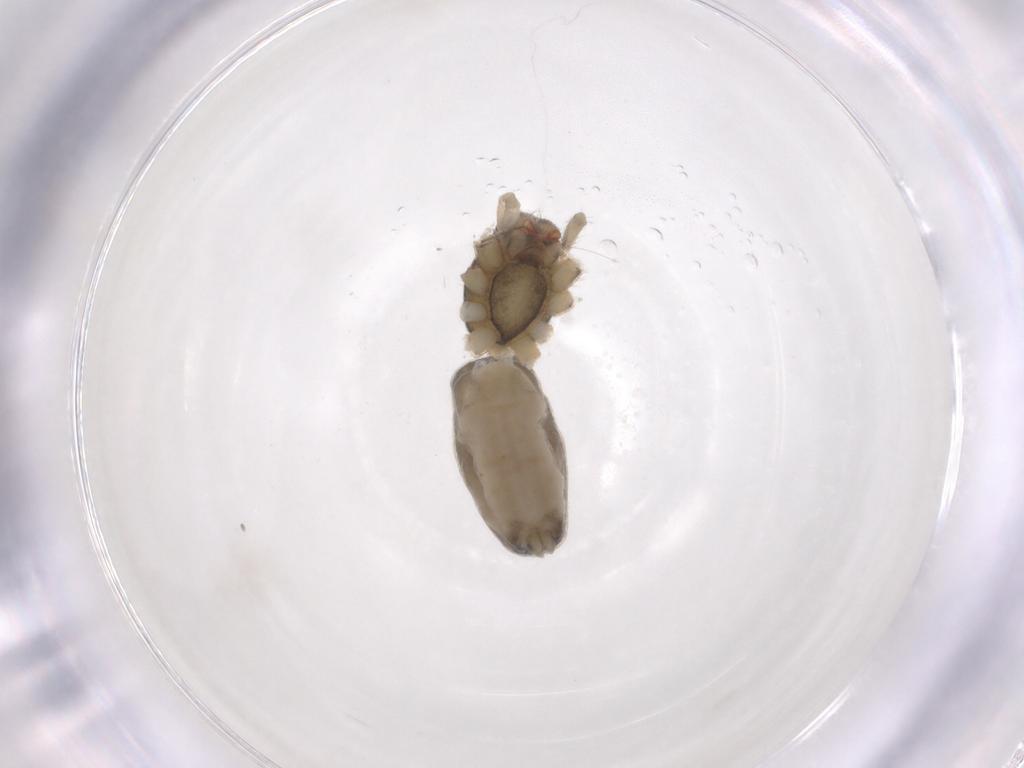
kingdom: Animalia
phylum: Arthropoda
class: Arachnida
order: Araneae
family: Trachelidae
